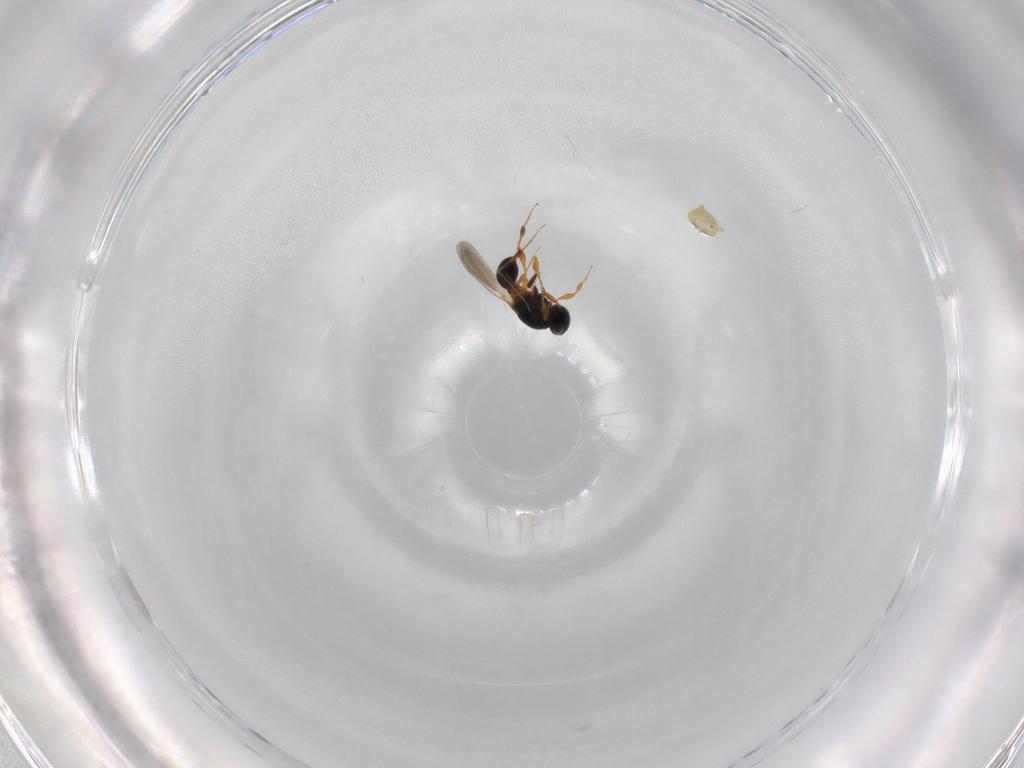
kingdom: Animalia
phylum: Arthropoda
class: Insecta
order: Hymenoptera
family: Platygastridae
